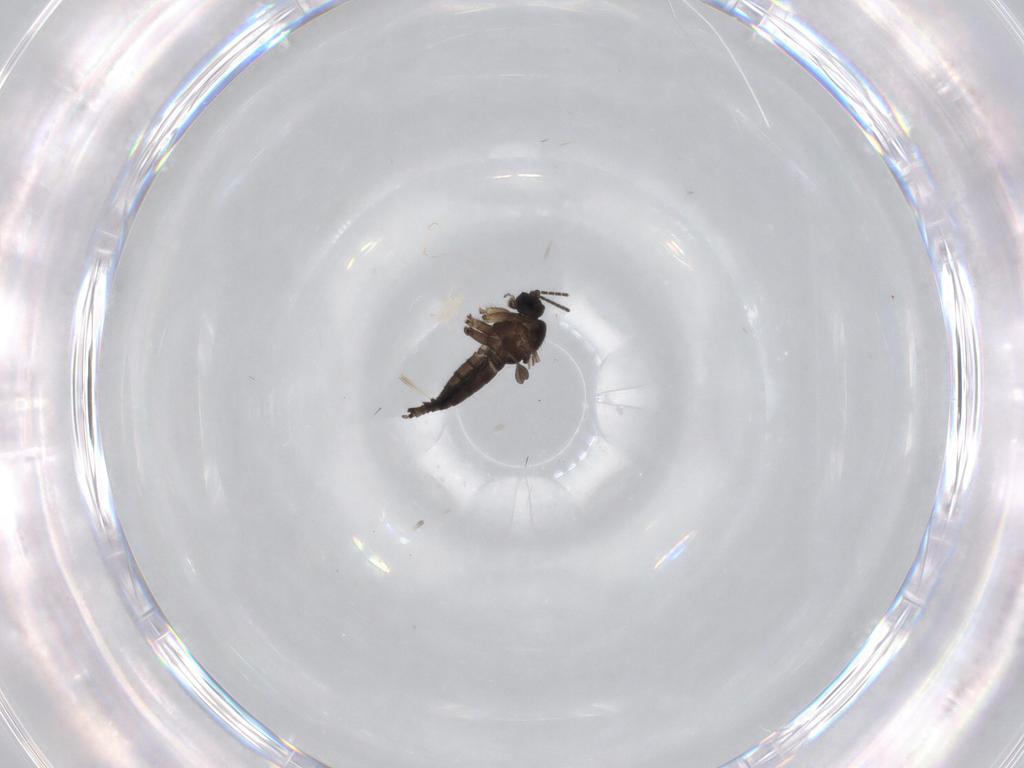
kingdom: Animalia
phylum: Arthropoda
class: Insecta
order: Diptera
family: Sciaridae
